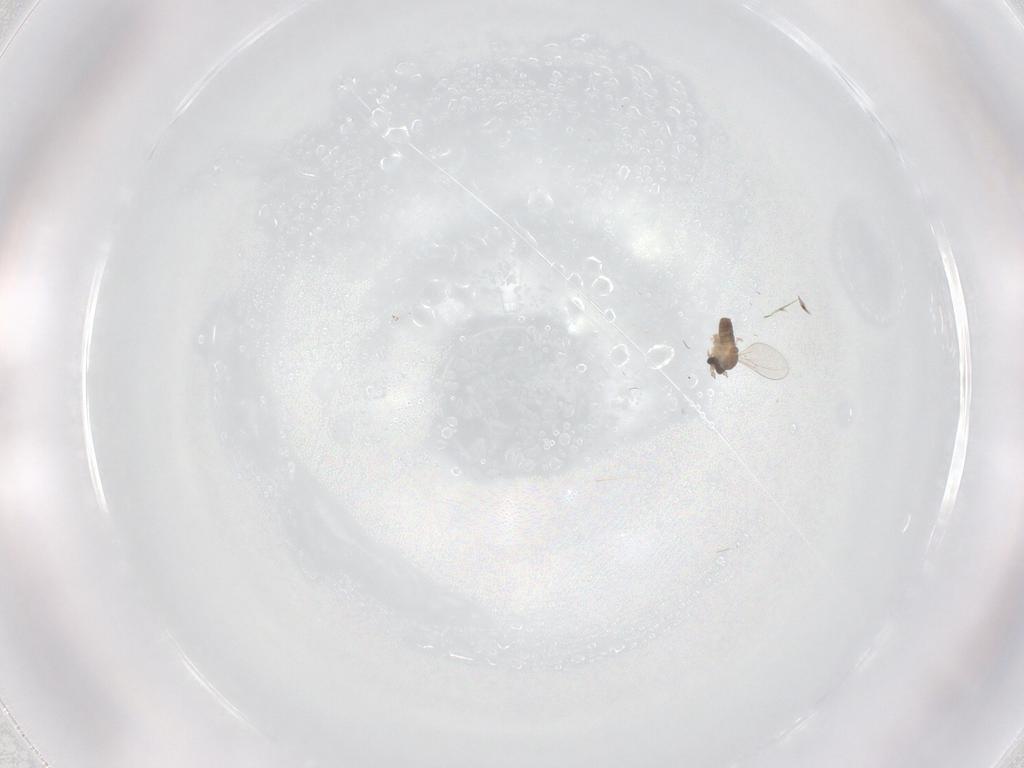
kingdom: Animalia
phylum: Arthropoda
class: Insecta
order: Diptera
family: Cecidomyiidae
